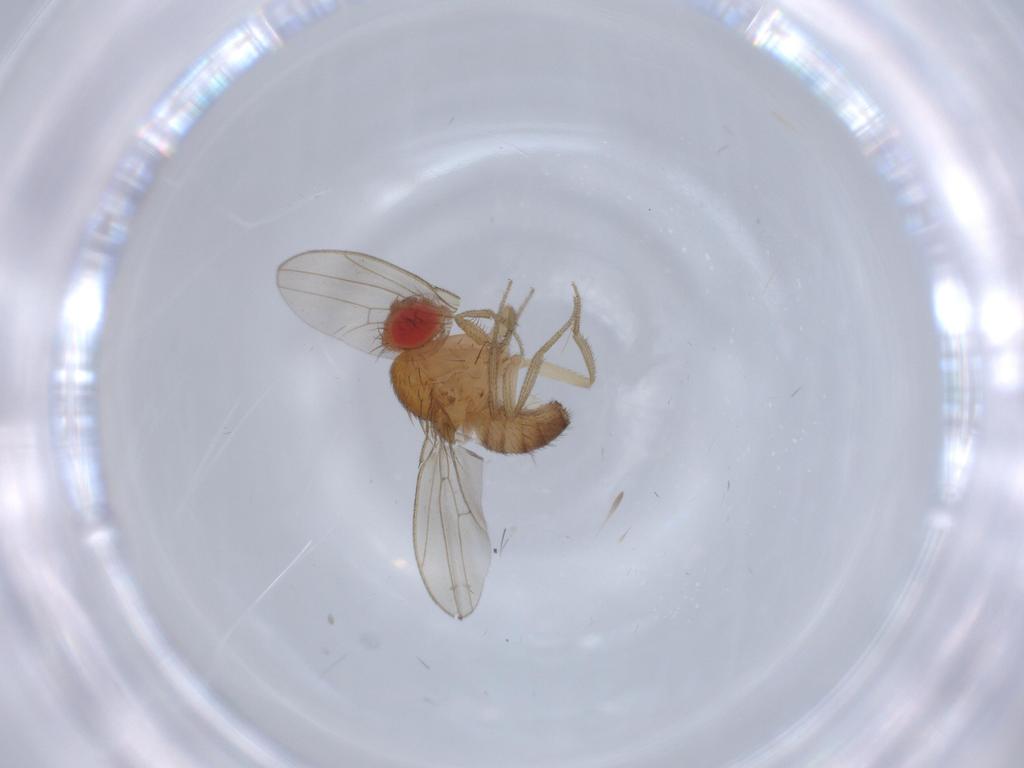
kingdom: Animalia
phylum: Arthropoda
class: Insecta
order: Diptera
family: Drosophilidae
